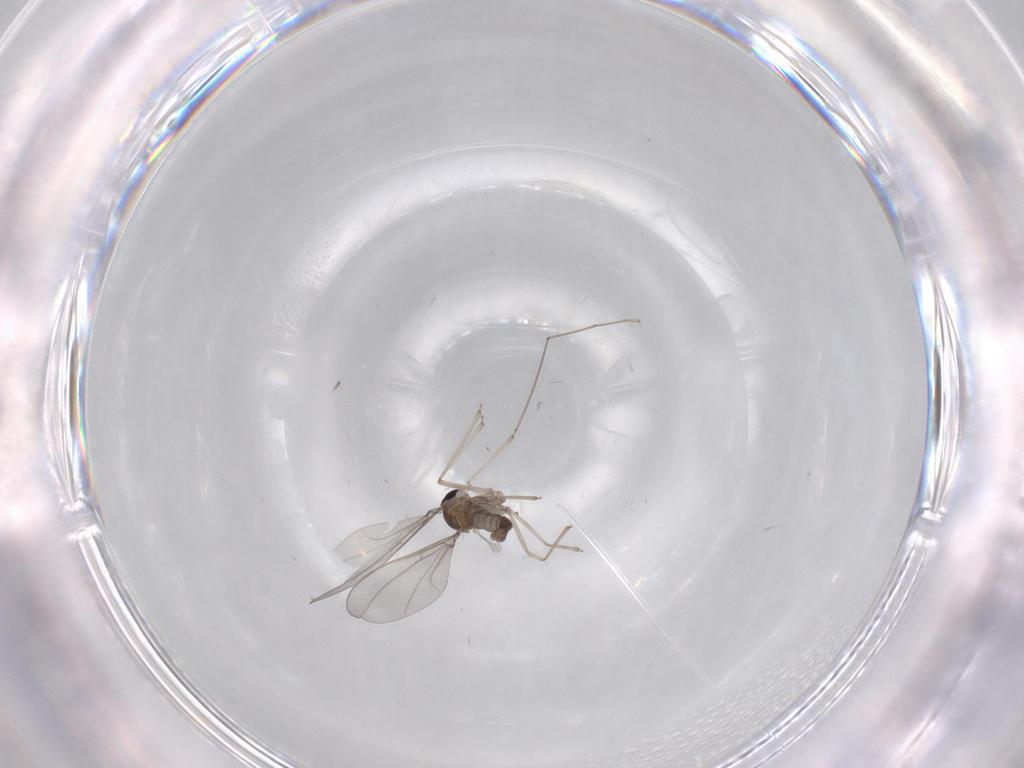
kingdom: Animalia
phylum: Arthropoda
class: Insecta
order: Diptera
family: Cecidomyiidae
